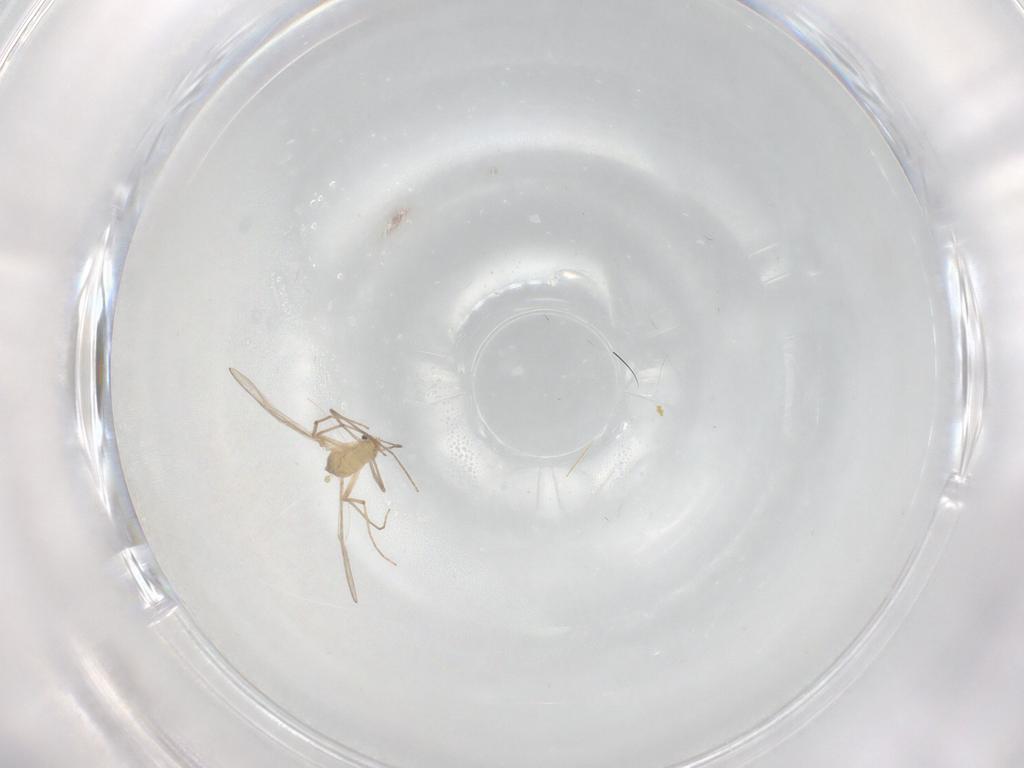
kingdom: Animalia
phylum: Arthropoda
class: Insecta
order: Diptera
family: Chironomidae
